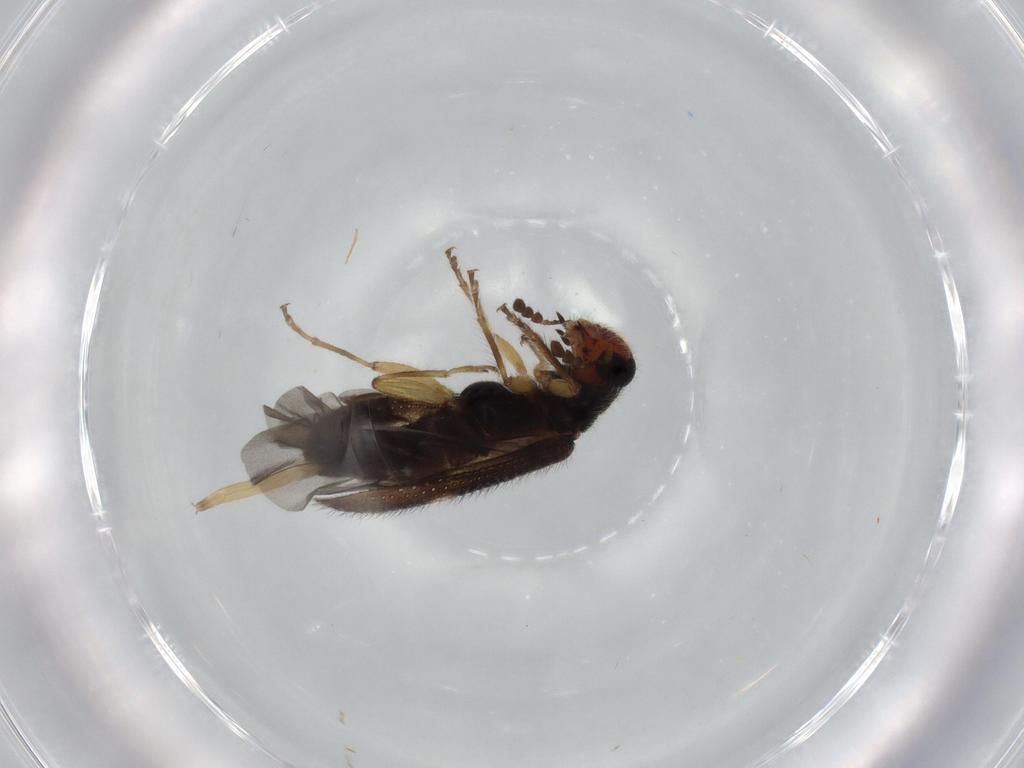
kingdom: Animalia
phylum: Arthropoda
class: Insecta
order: Coleoptera
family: Cleridae
